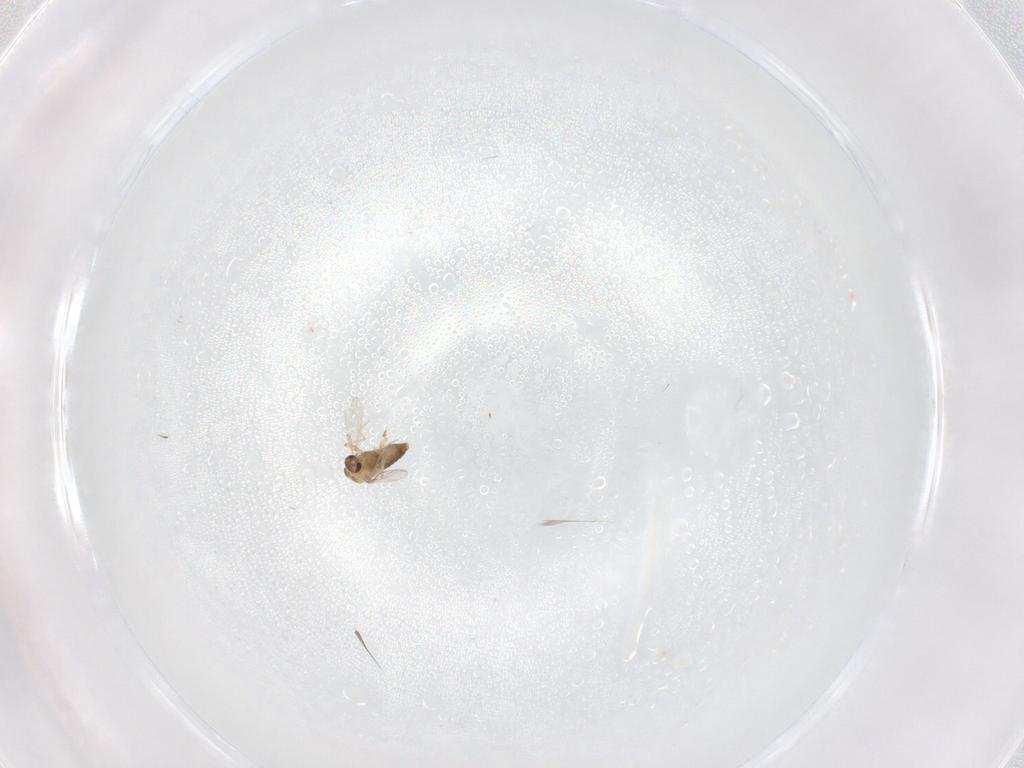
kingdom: Animalia
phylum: Arthropoda
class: Insecta
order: Diptera
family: Chironomidae
